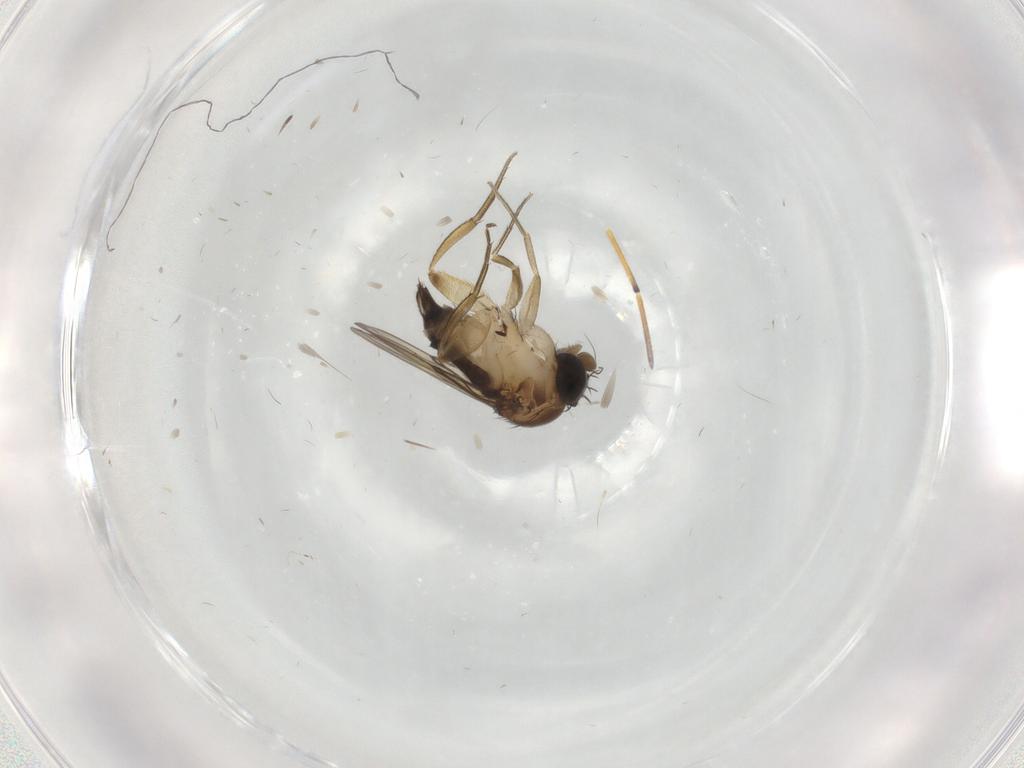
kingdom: Animalia
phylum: Arthropoda
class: Insecta
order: Diptera
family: Phoridae
